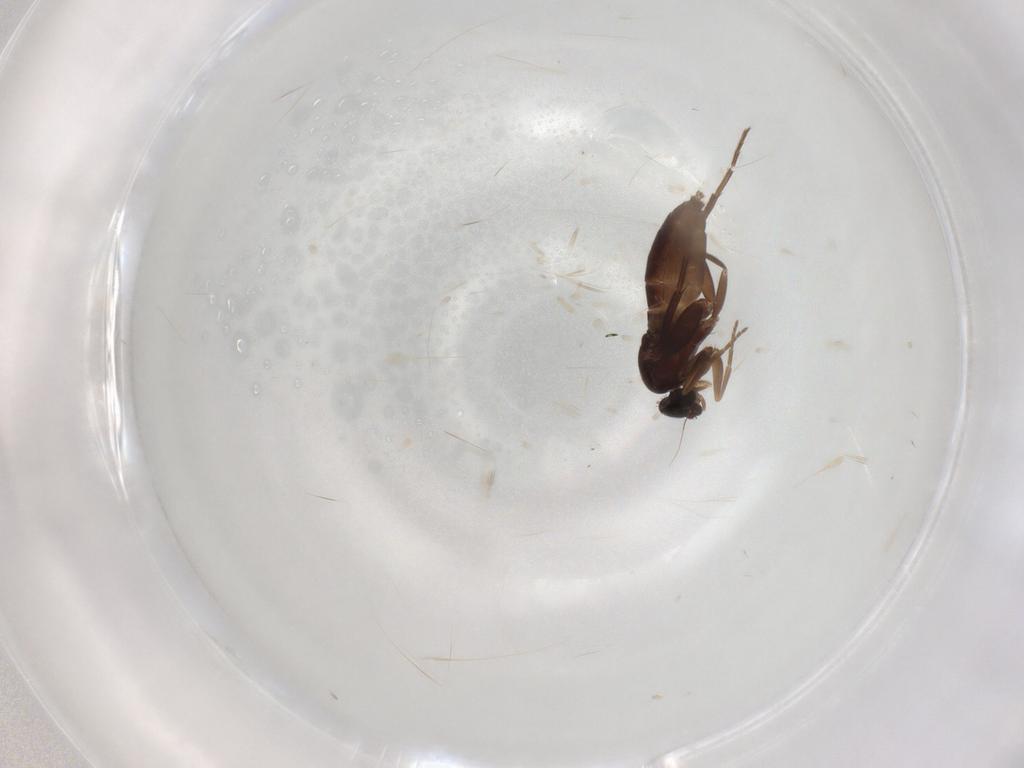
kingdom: Animalia
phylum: Arthropoda
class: Insecta
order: Diptera
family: Phoridae
